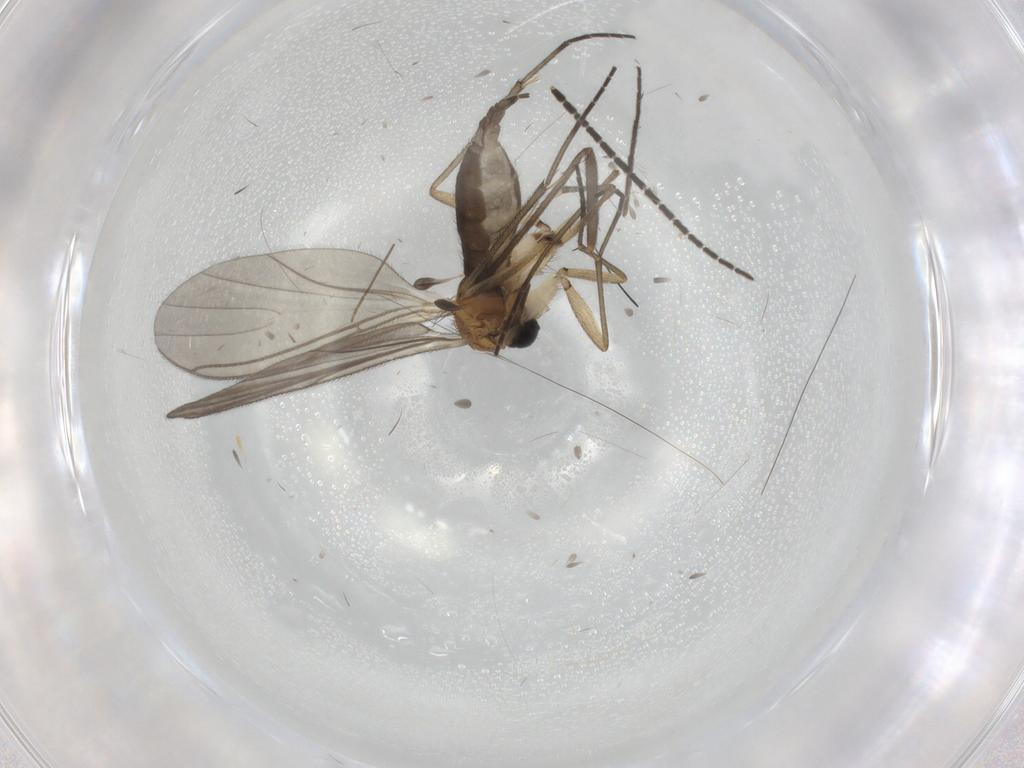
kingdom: Animalia
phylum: Arthropoda
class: Insecta
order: Diptera
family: Sciaridae
